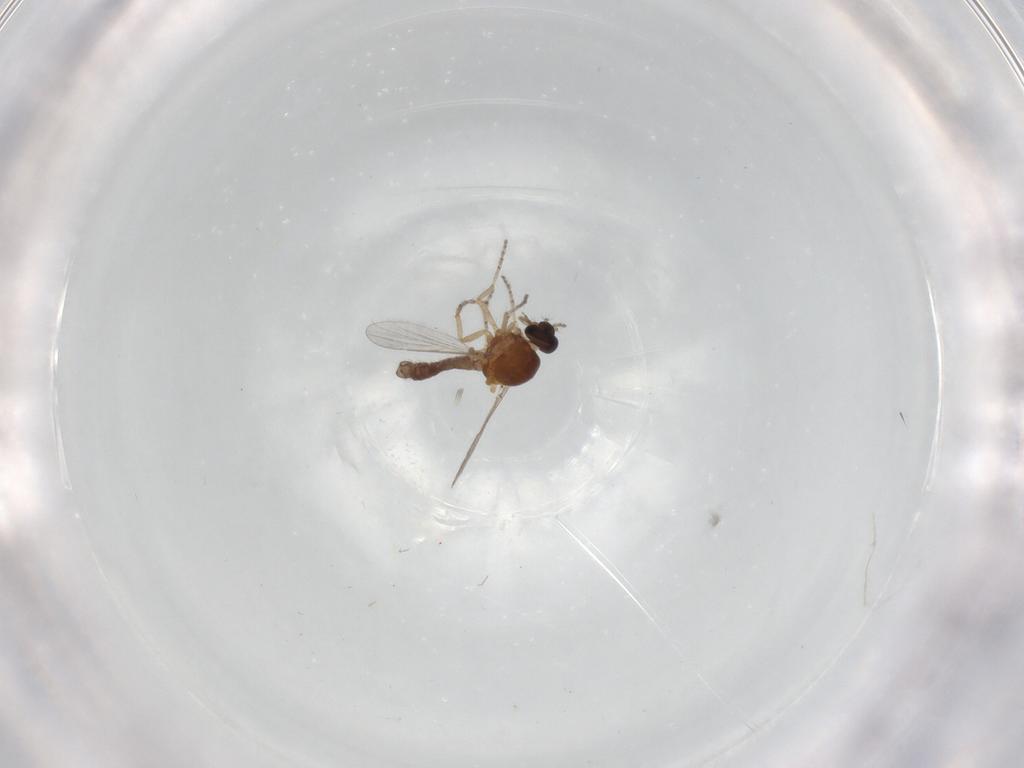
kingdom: Animalia
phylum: Arthropoda
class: Insecta
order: Diptera
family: Ceratopogonidae
